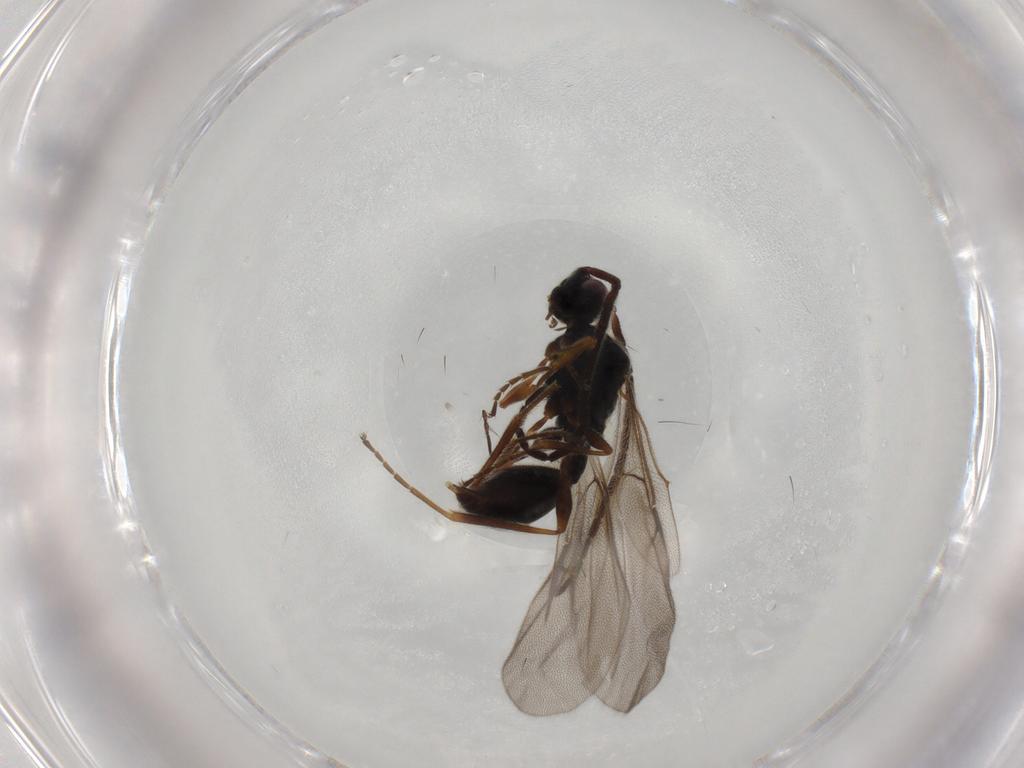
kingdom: Animalia
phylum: Arthropoda
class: Insecta
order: Hymenoptera
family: Diapriidae
